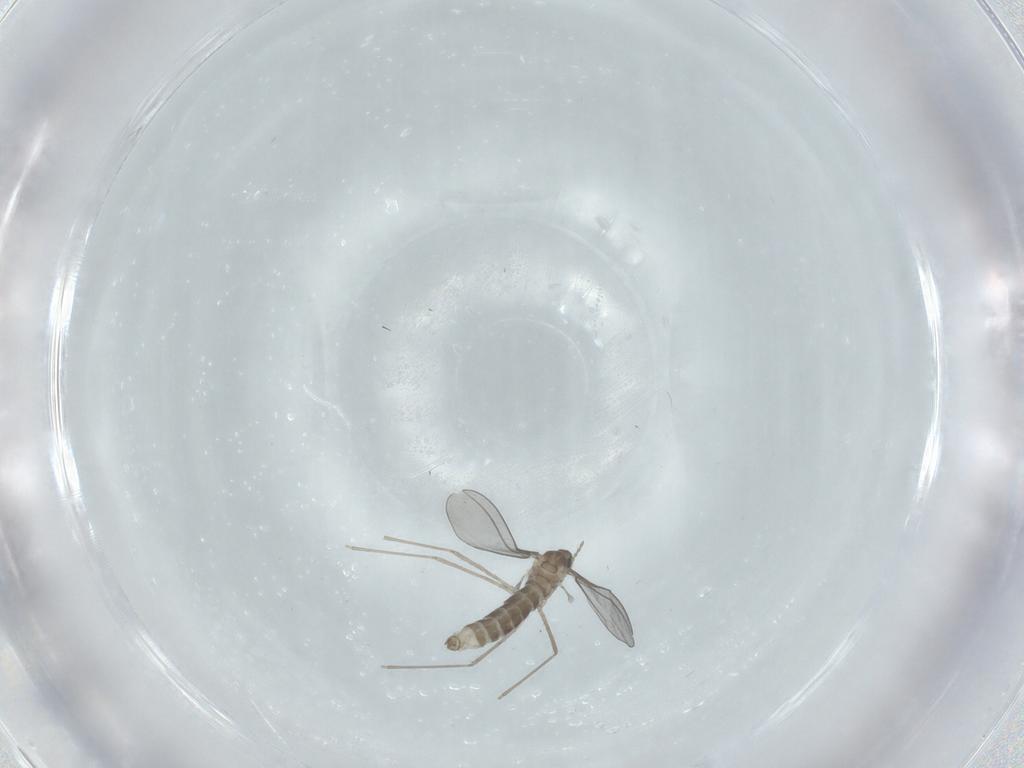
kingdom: Animalia
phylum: Arthropoda
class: Insecta
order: Diptera
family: Cecidomyiidae
